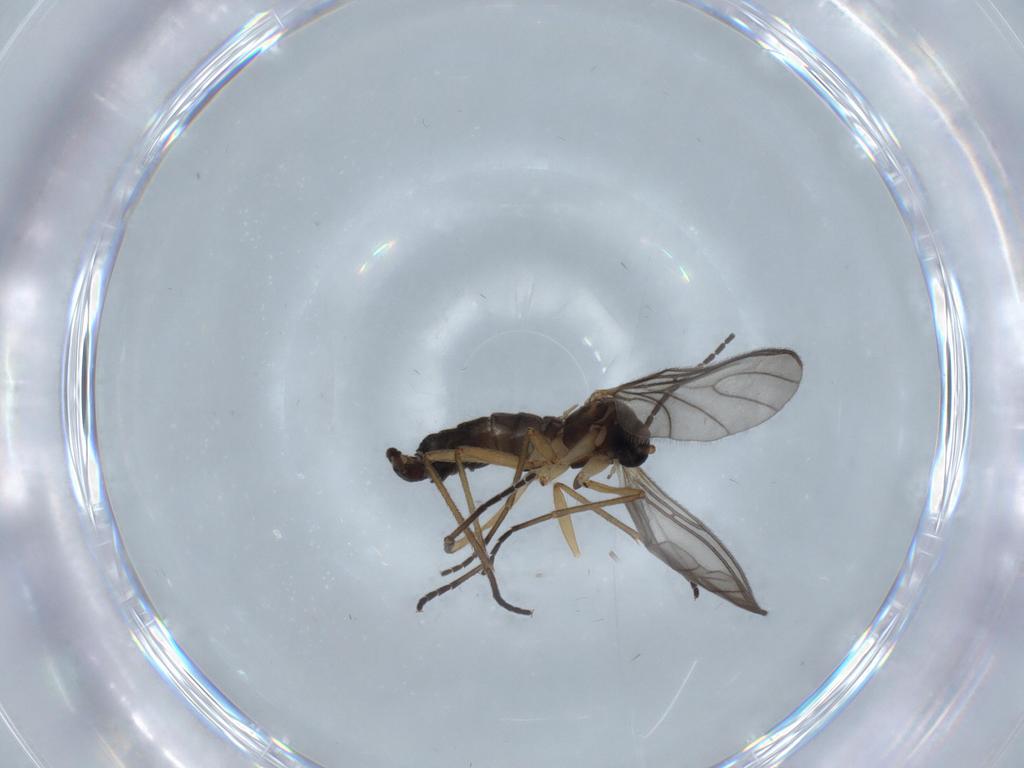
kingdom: Animalia
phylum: Arthropoda
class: Insecta
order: Diptera
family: Sciaridae
